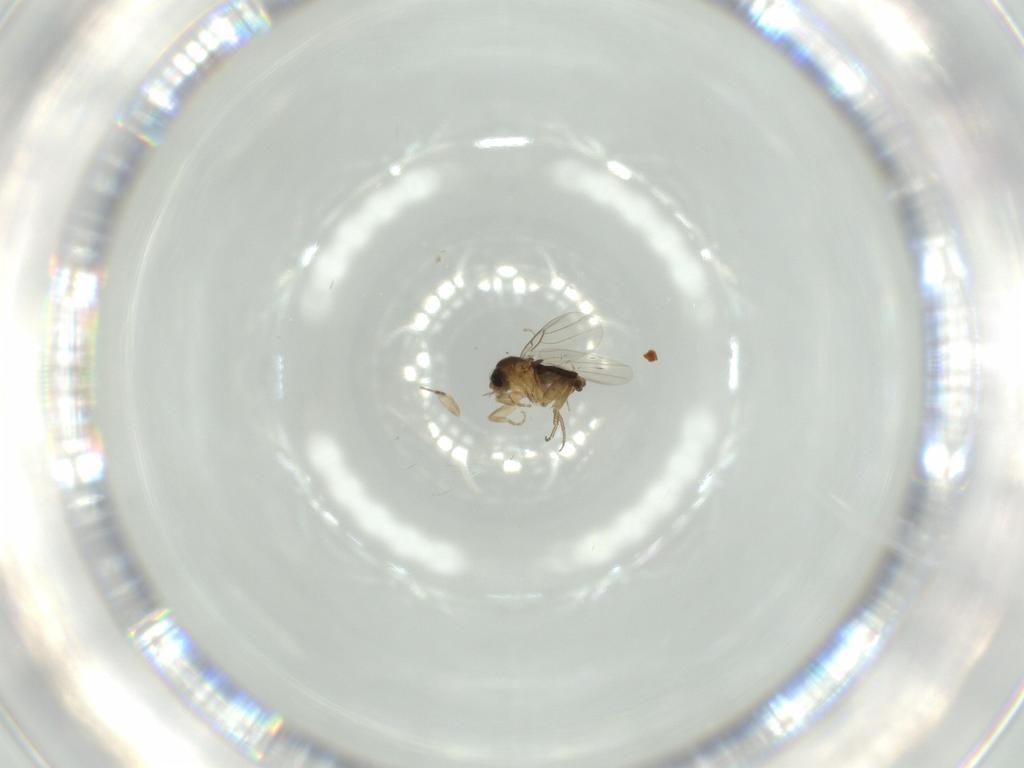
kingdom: Animalia
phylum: Arthropoda
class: Insecta
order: Diptera
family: Phoridae
